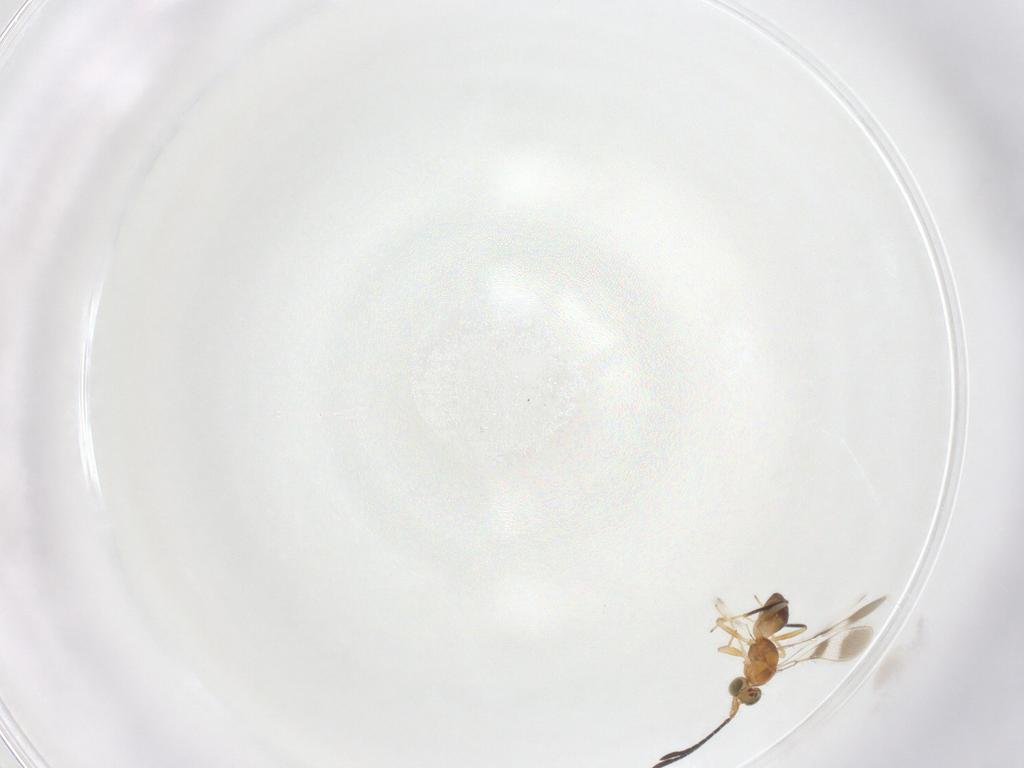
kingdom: Animalia
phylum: Arthropoda
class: Insecta
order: Hymenoptera
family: Mymaridae
